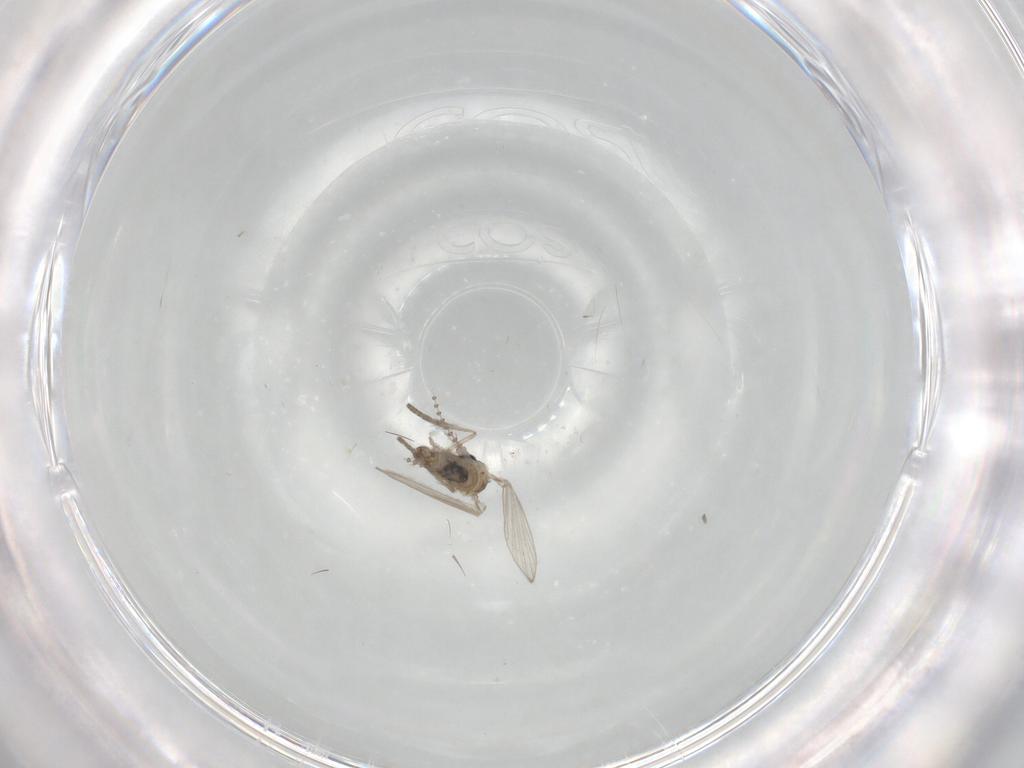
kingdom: Animalia
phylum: Arthropoda
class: Insecta
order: Diptera
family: Psychodidae
